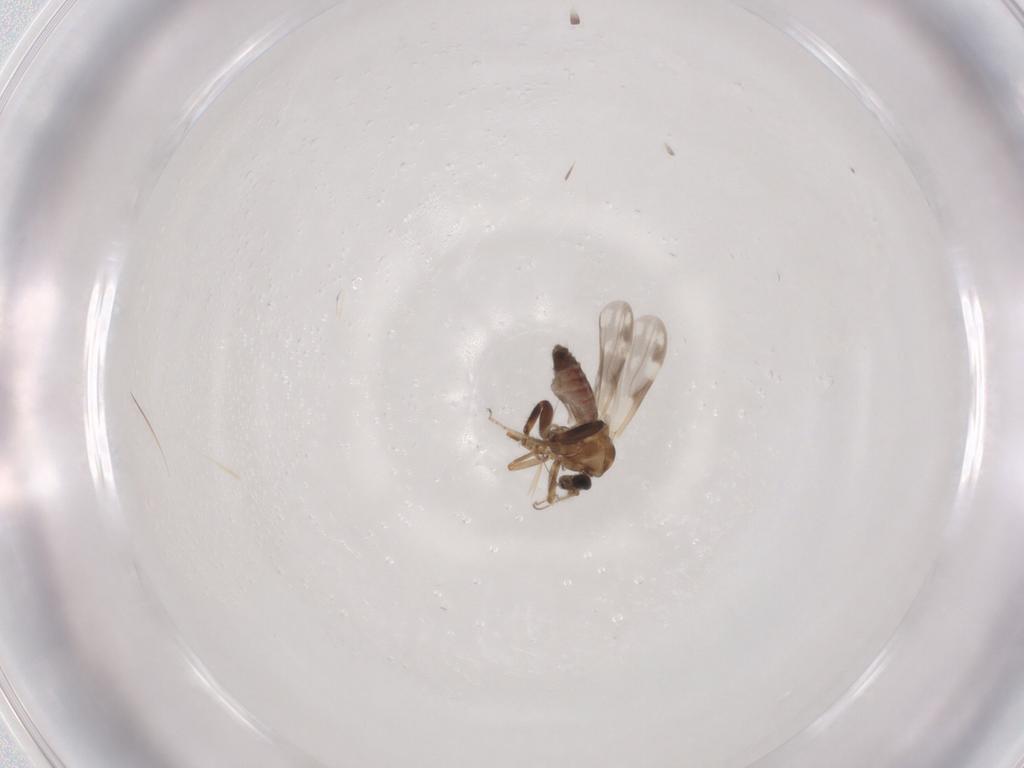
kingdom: Animalia
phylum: Arthropoda
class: Insecta
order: Diptera
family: Ceratopogonidae
